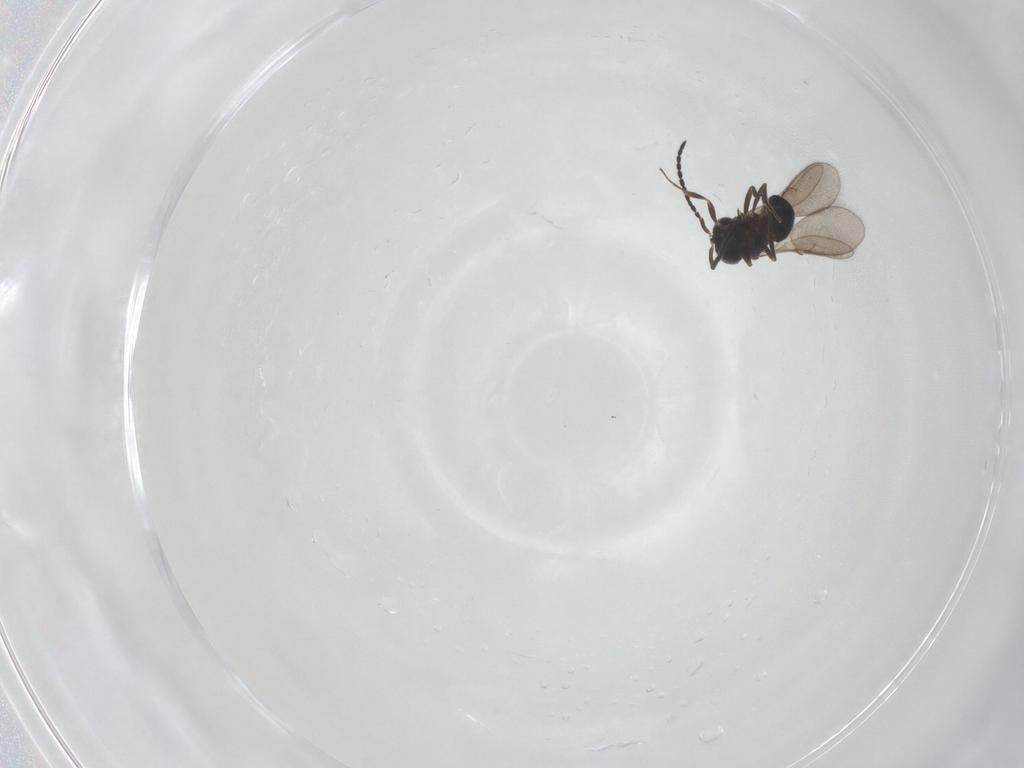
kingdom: Animalia
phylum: Arthropoda
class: Insecta
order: Hymenoptera
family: Scelionidae
